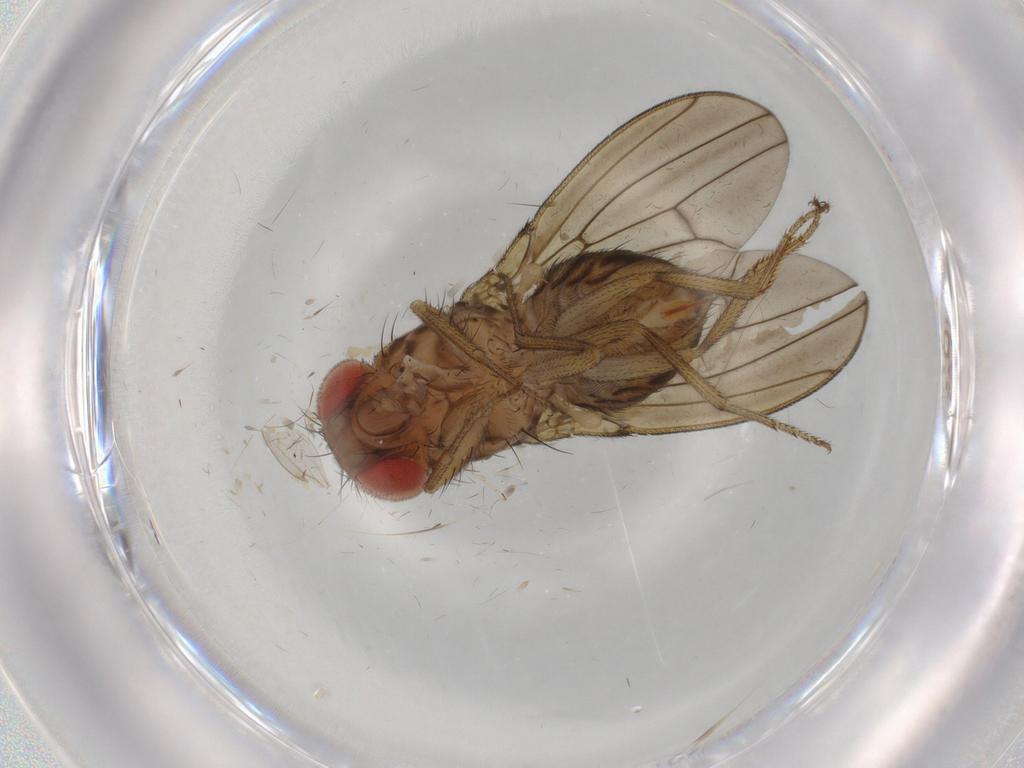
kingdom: Animalia
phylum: Arthropoda
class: Insecta
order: Diptera
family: Drosophilidae
